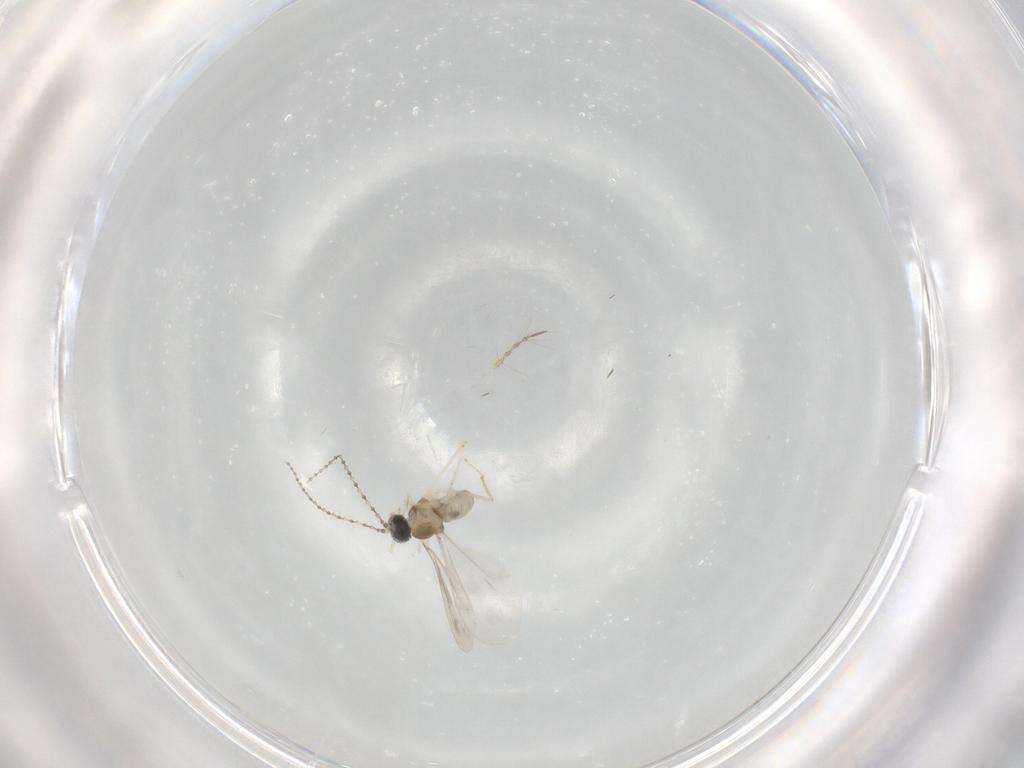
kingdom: Animalia
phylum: Arthropoda
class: Insecta
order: Diptera
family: Cecidomyiidae
